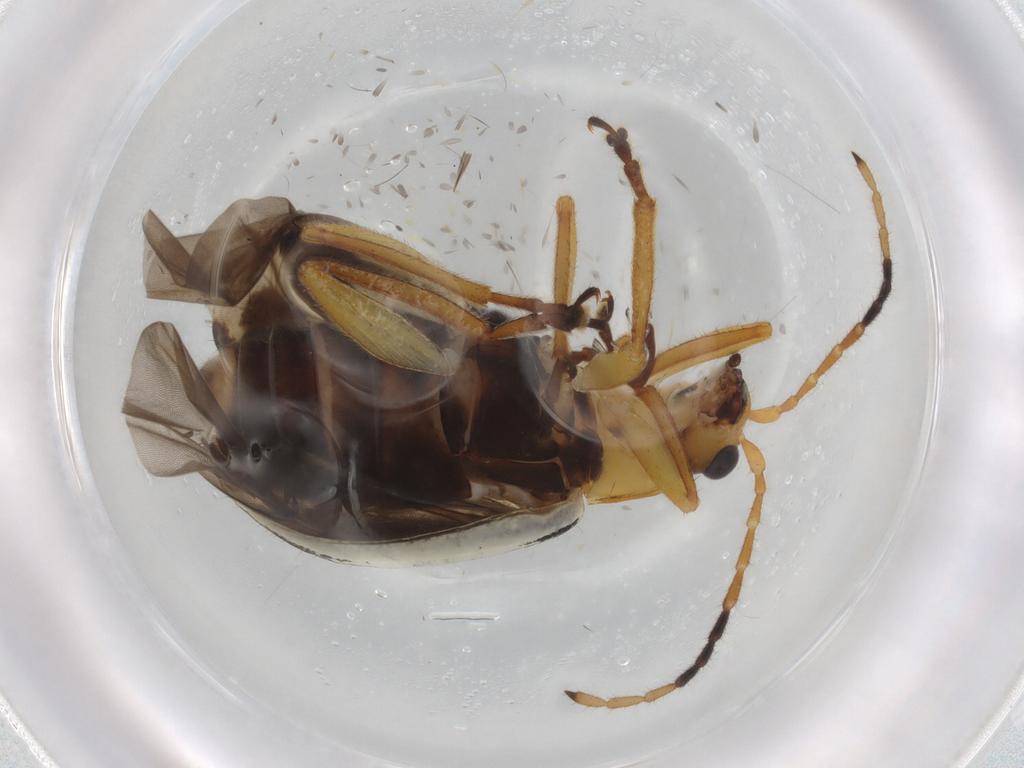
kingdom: Animalia
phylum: Arthropoda
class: Insecta
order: Coleoptera
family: Chrysomelidae
